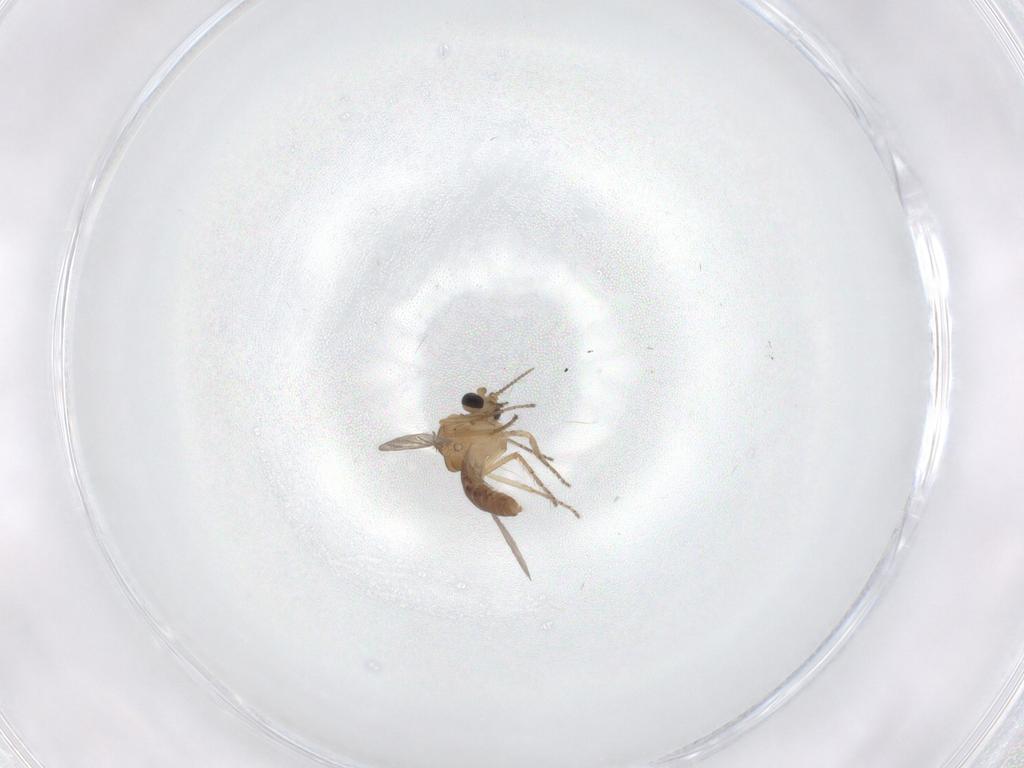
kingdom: Animalia
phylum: Arthropoda
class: Insecta
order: Diptera
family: Ceratopogonidae
